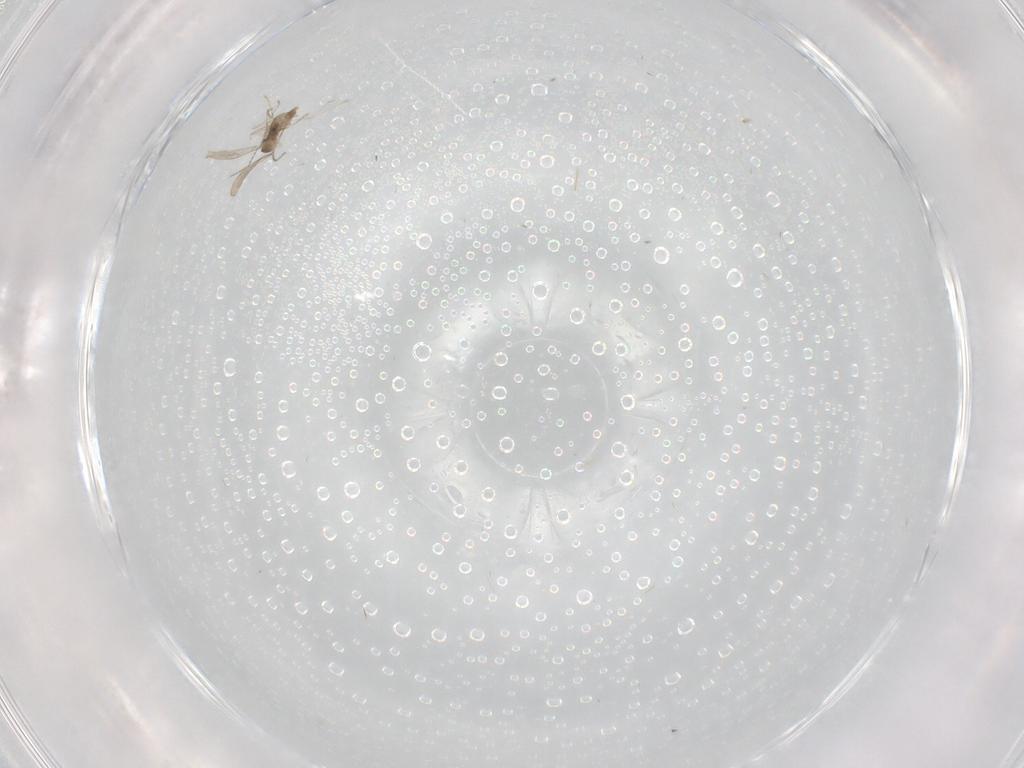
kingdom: Animalia
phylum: Arthropoda
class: Insecta
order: Diptera
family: Cecidomyiidae
